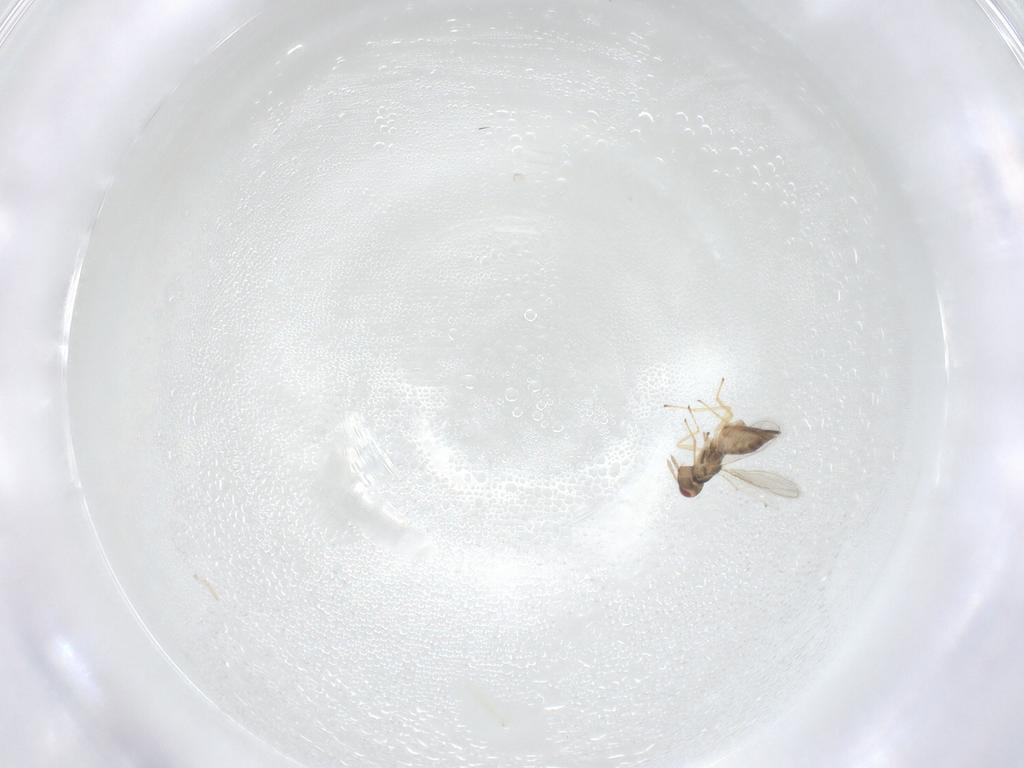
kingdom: Animalia
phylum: Arthropoda
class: Insecta
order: Hymenoptera
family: Eulophidae
